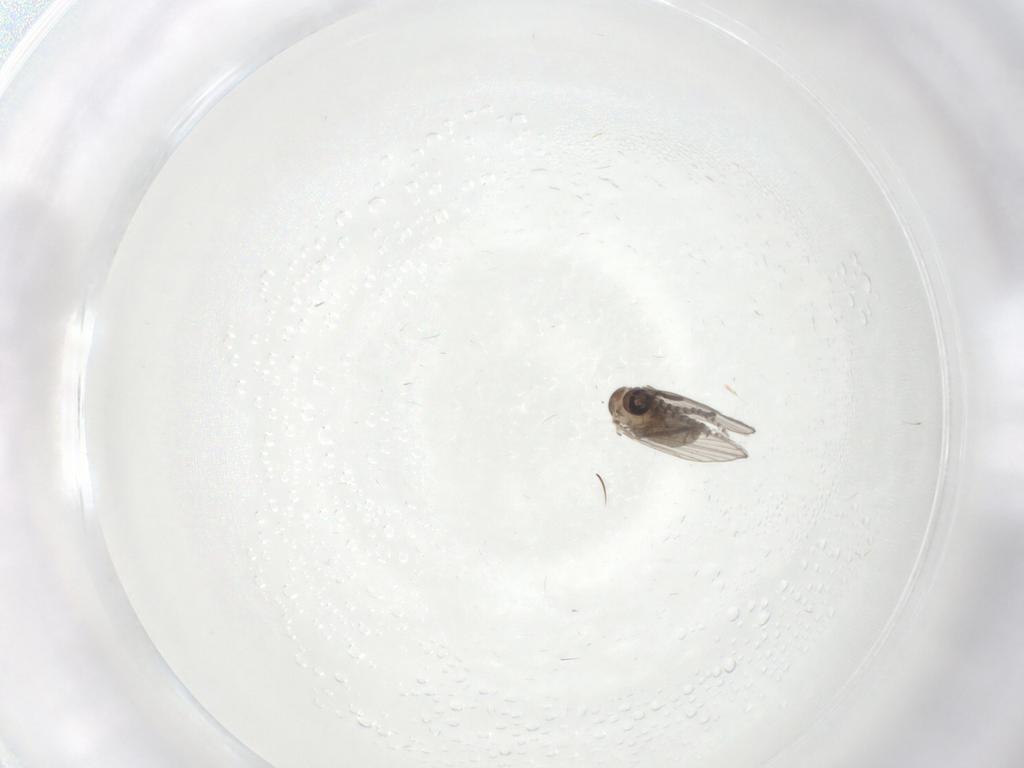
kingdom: Animalia
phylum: Arthropoda
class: Insecta
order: Diptera
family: Psychodidae
